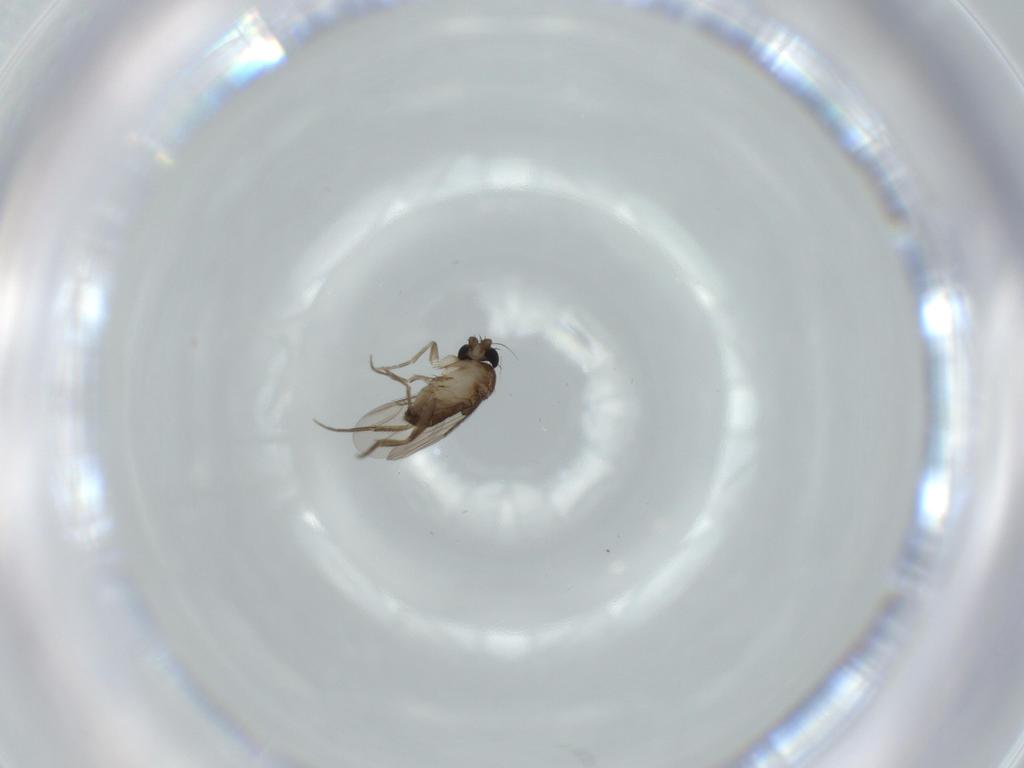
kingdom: Animalia
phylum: Arthropoda
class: Insecta
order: Diptera
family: Phoridae
